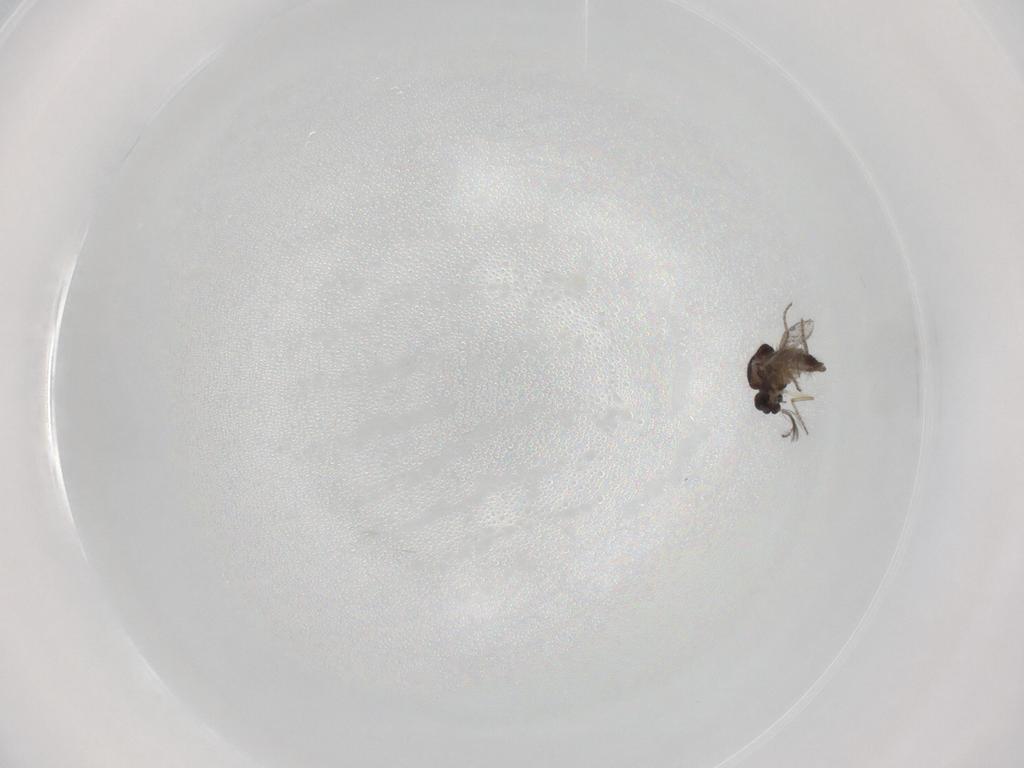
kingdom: Animalia
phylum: Arthropoda
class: Insecta
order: Diptera
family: Ceratopogonidae
